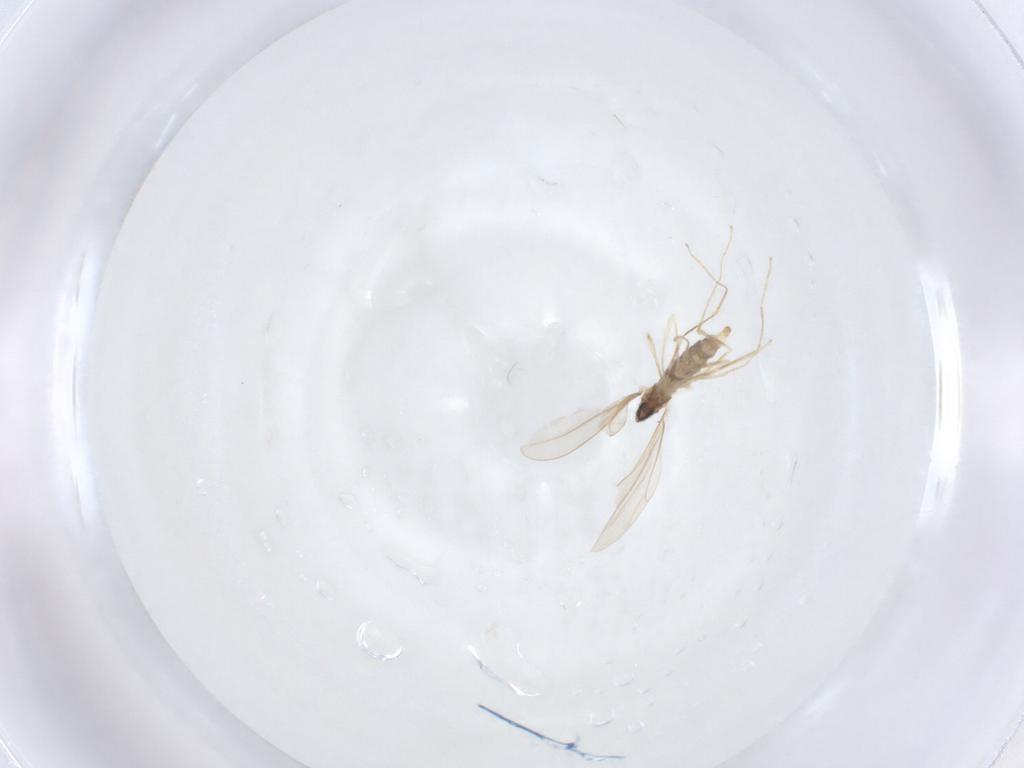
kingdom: Animalia
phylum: Arthropoda
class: Insecta
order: Diptera
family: Cecidomyiidae
